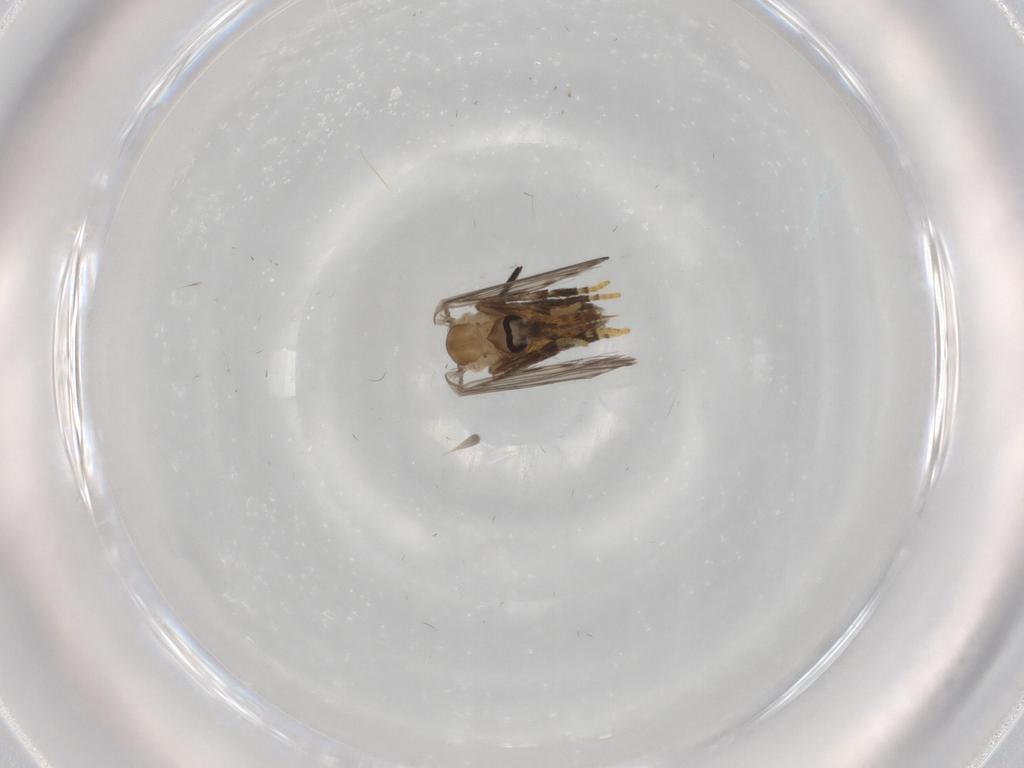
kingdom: Animalia
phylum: Arthropoda
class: Insecta
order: Diptera
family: Psychodidae
